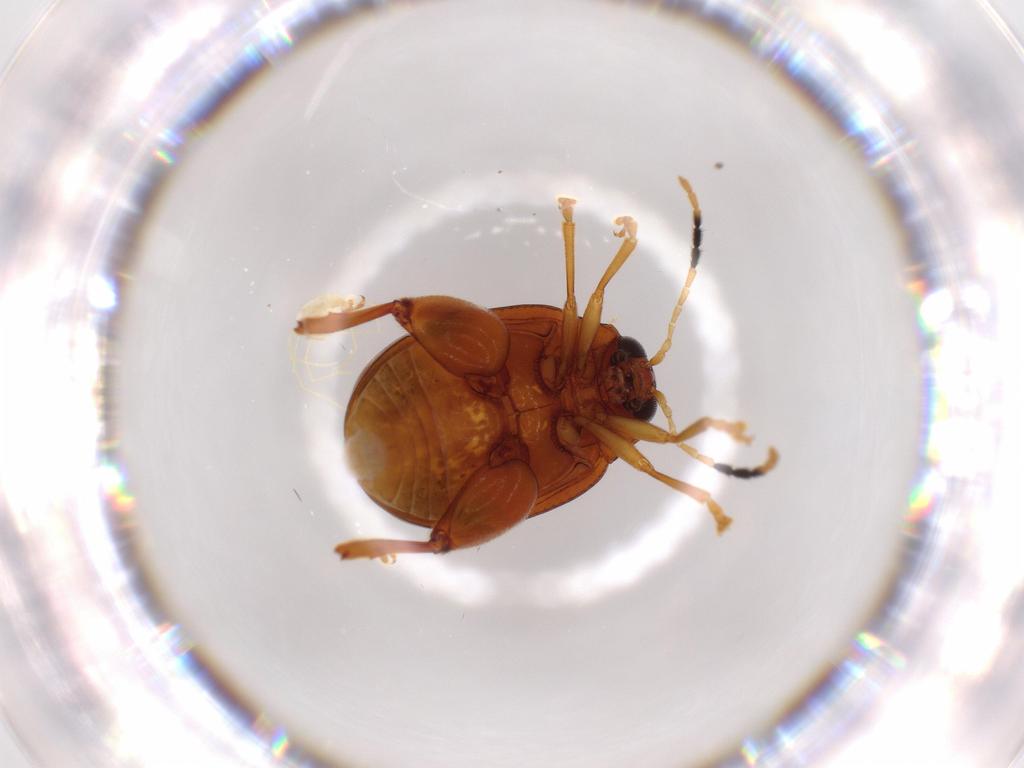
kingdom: Animalia
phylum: Arthropoda
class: Insecta
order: Coleoptera
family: Chrysomelidae
